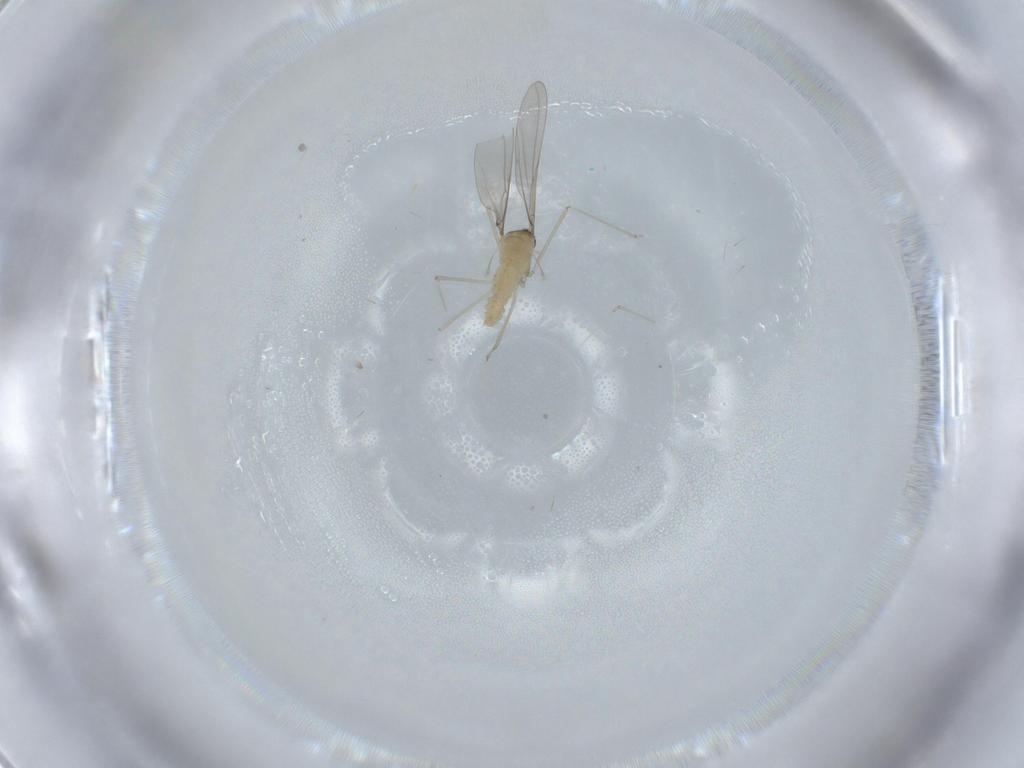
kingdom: Animalia
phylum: Arthropoda
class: Insecta
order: Diptera
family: Cecidomyiidae
